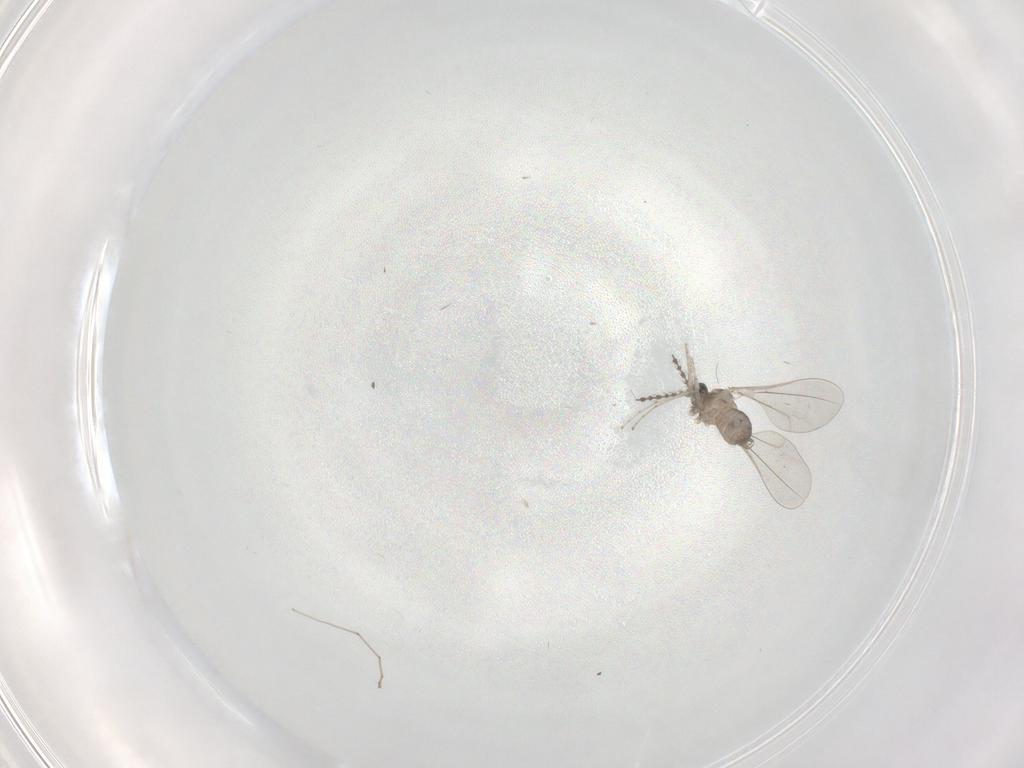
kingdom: Animalia
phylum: Arthropoda
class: Insecta
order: Diptera
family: Cecidomyiidae
